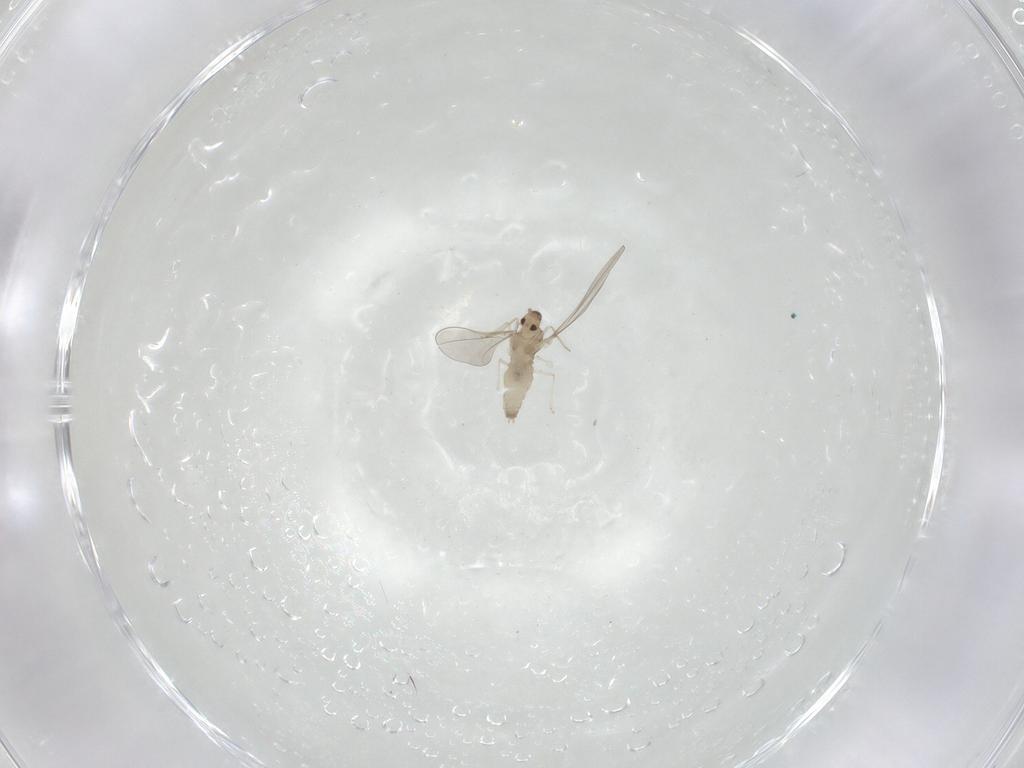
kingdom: Animalia
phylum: Arthropoda
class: Insecta
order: Diptera
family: Cecidomyiidae
